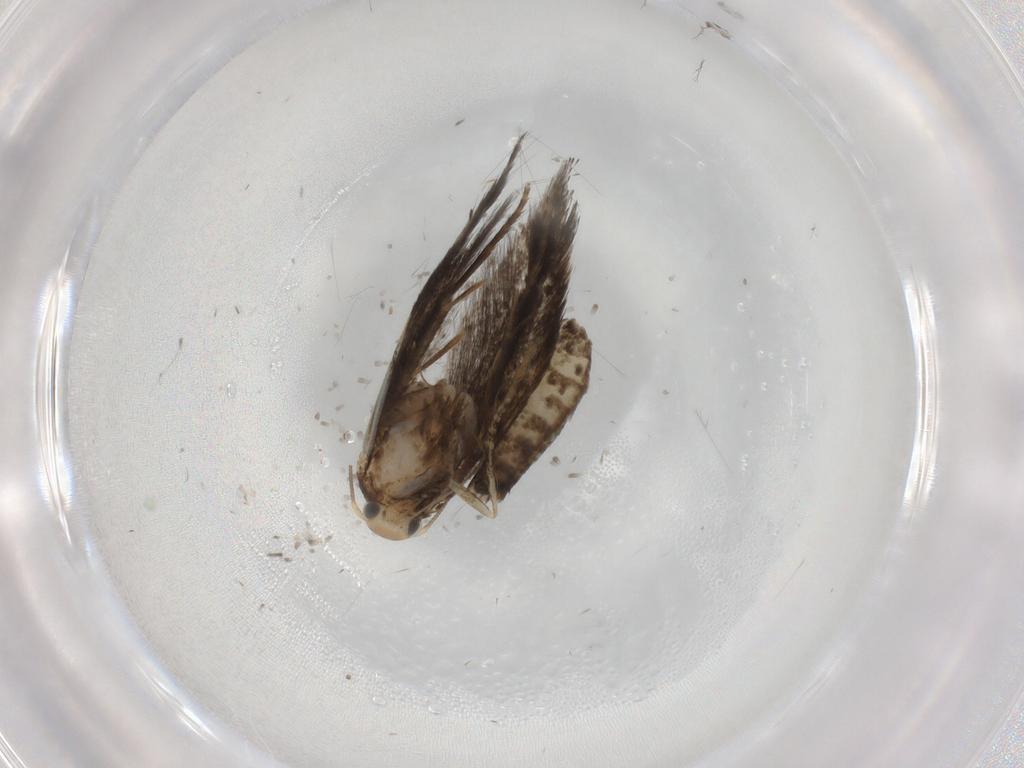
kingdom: Animalia
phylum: Arthropoda
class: Insecta
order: Lepidoptera
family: Pieridae
